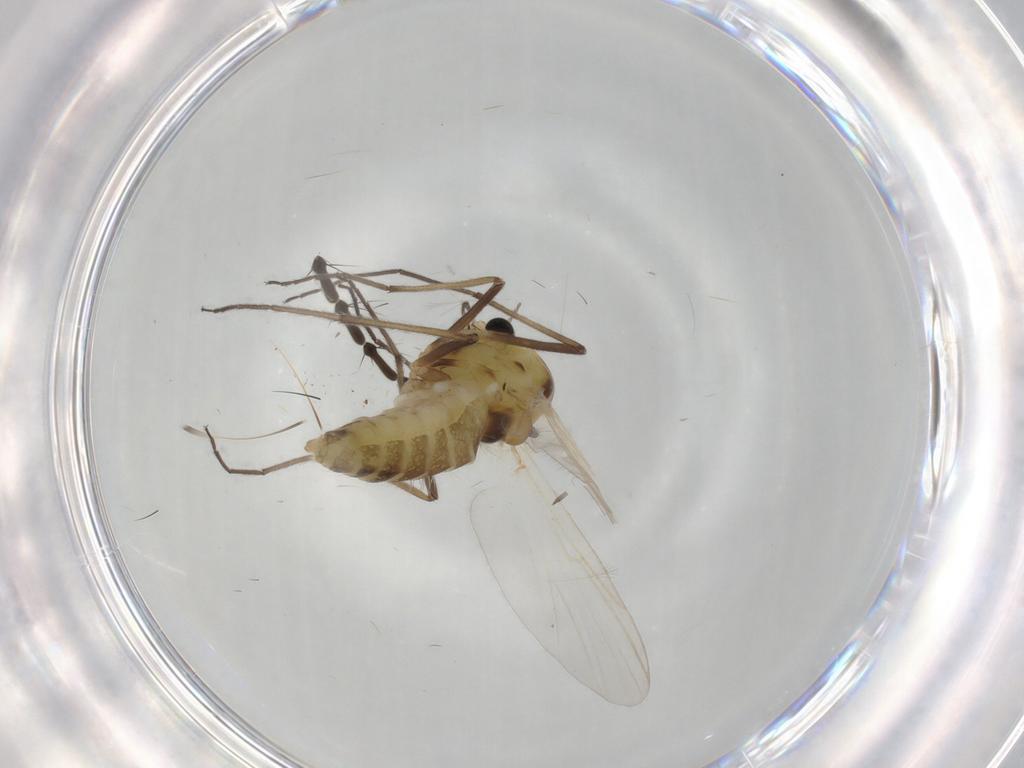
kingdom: Animalia
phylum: Arthropoda
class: Insecta
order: Diptera
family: Chironomidae
